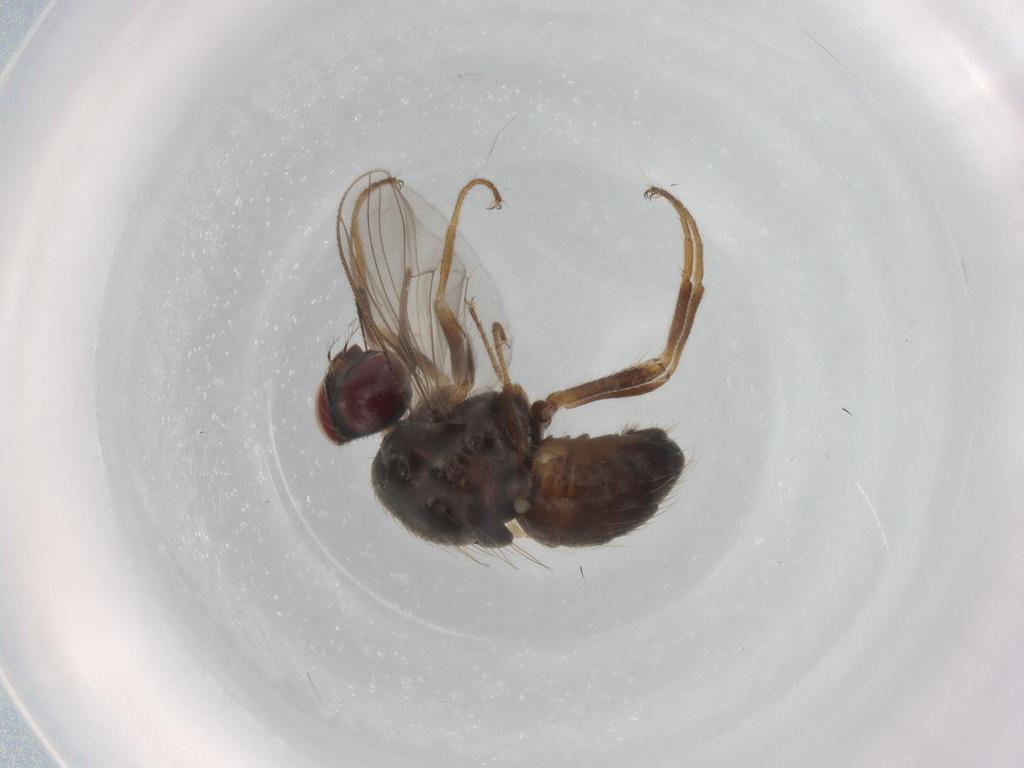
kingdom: Animalia
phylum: Arthropoda
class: Insecta
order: Diptera
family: Muscidae
